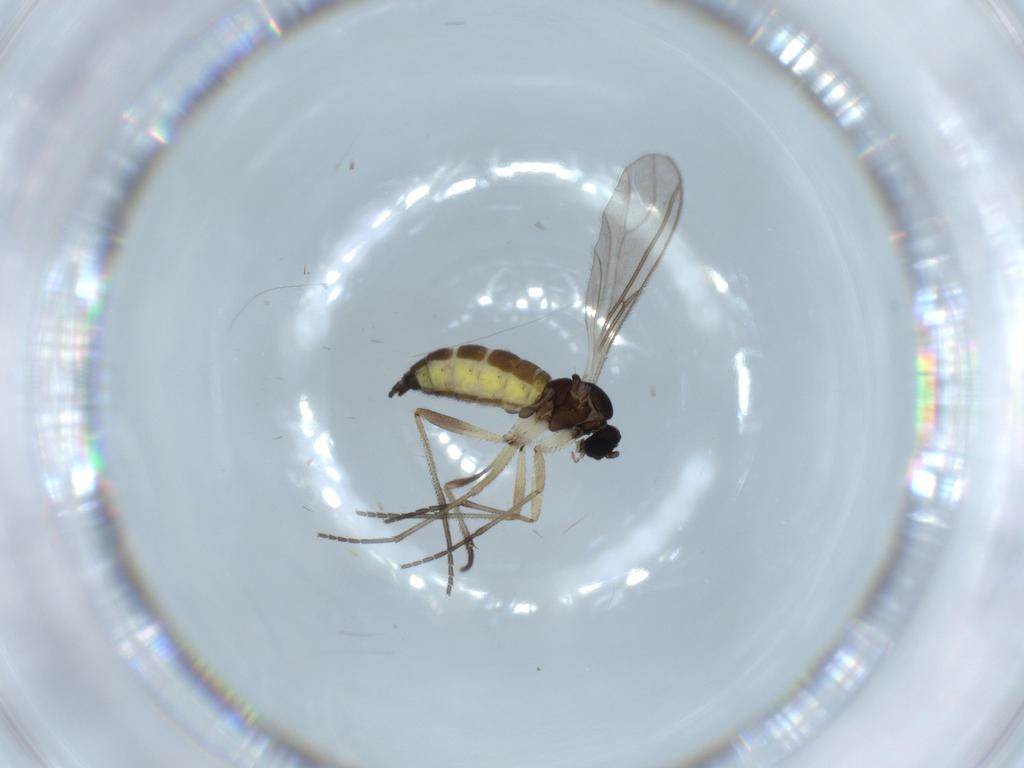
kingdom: Animalia
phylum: Arthropoda
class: Insecta
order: Diptera
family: Sciaridae
